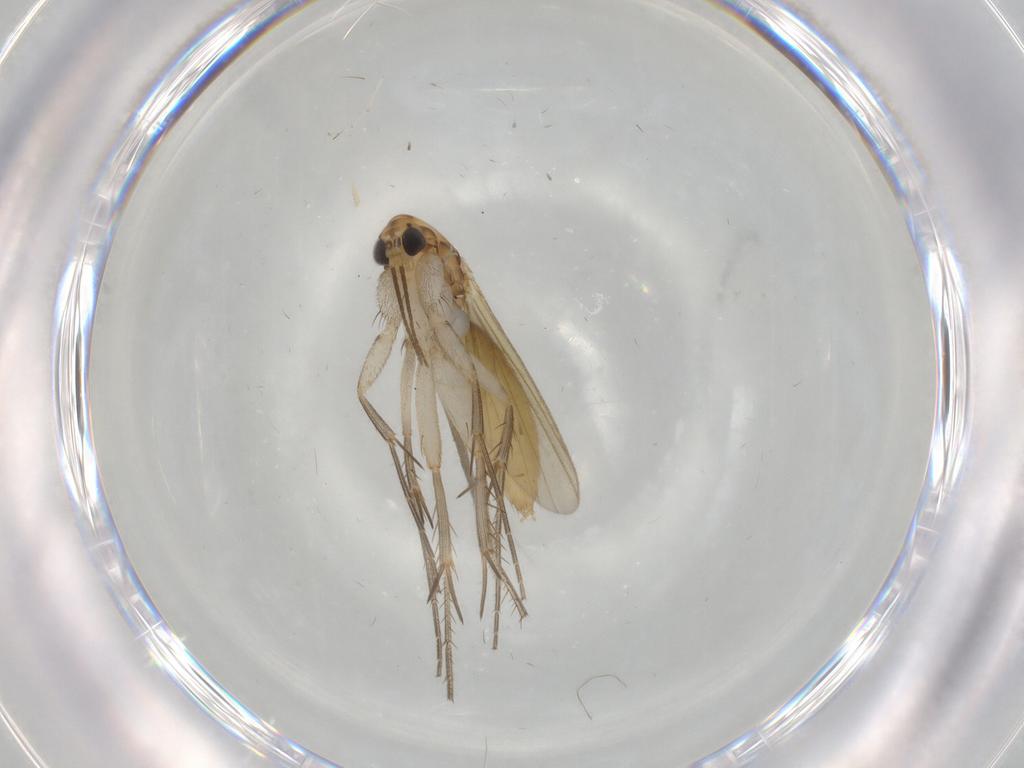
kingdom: Animalia
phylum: Arthropoda
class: Insecta
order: Diptera
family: Mycetophilidae
